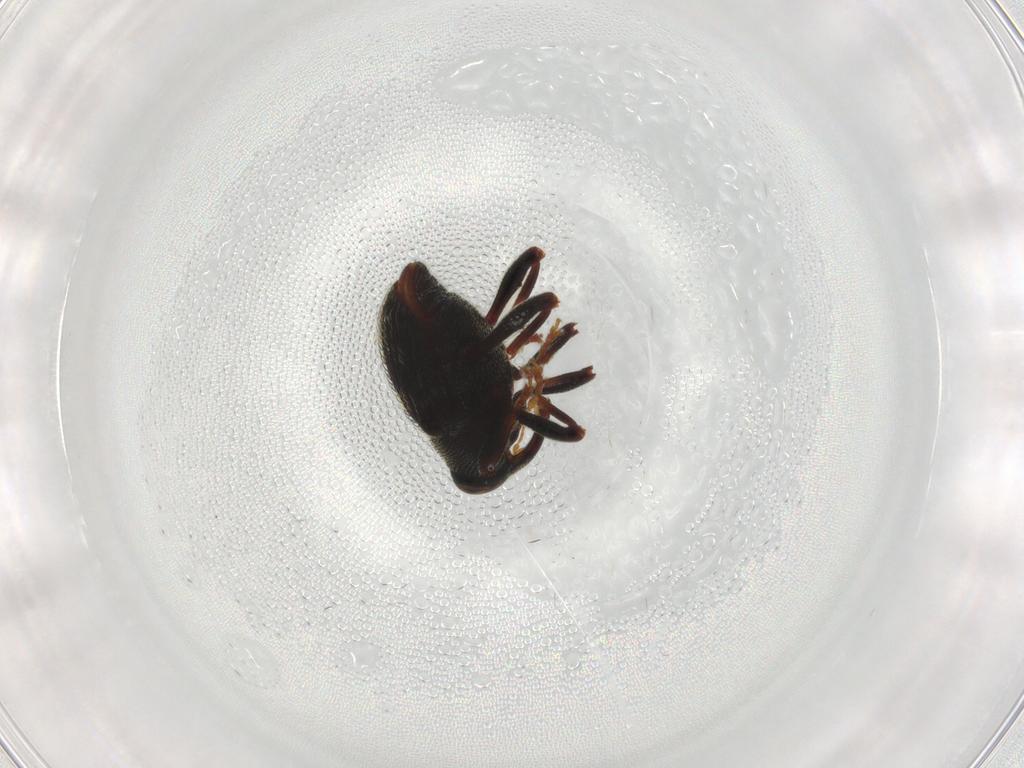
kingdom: Animalia
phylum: Arthropoda
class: Insecta
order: Coleoptera
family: Curculionidae
